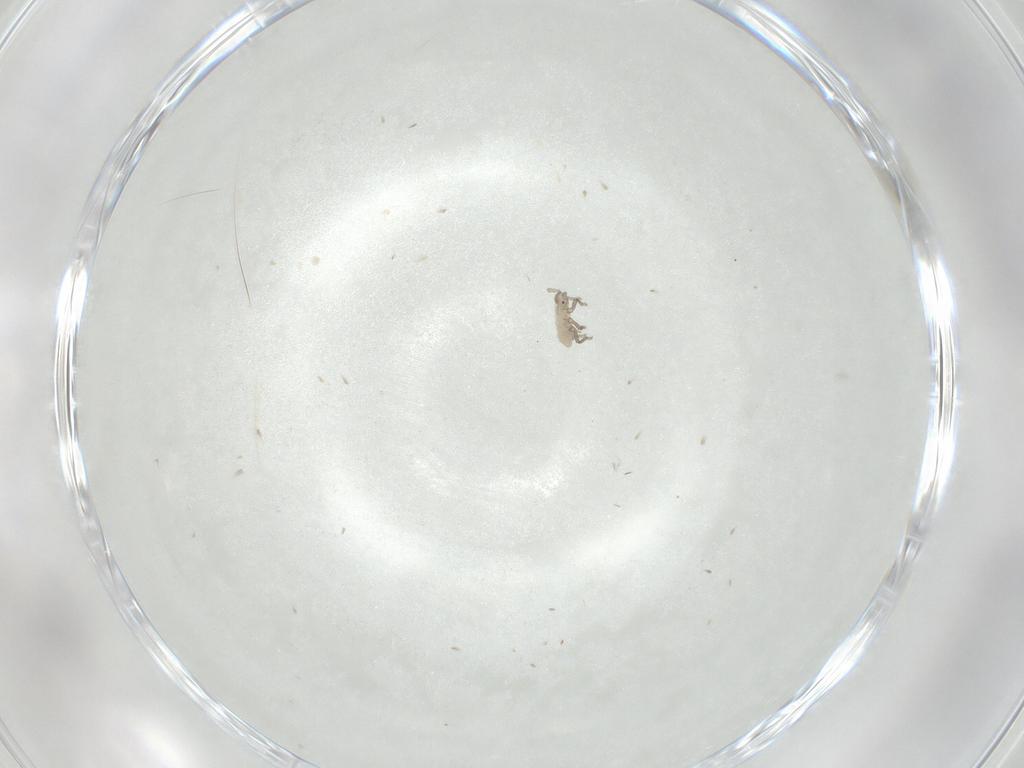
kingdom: Animalia
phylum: Arthropoda
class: Insecta
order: Hemiptera
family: Aphididae
